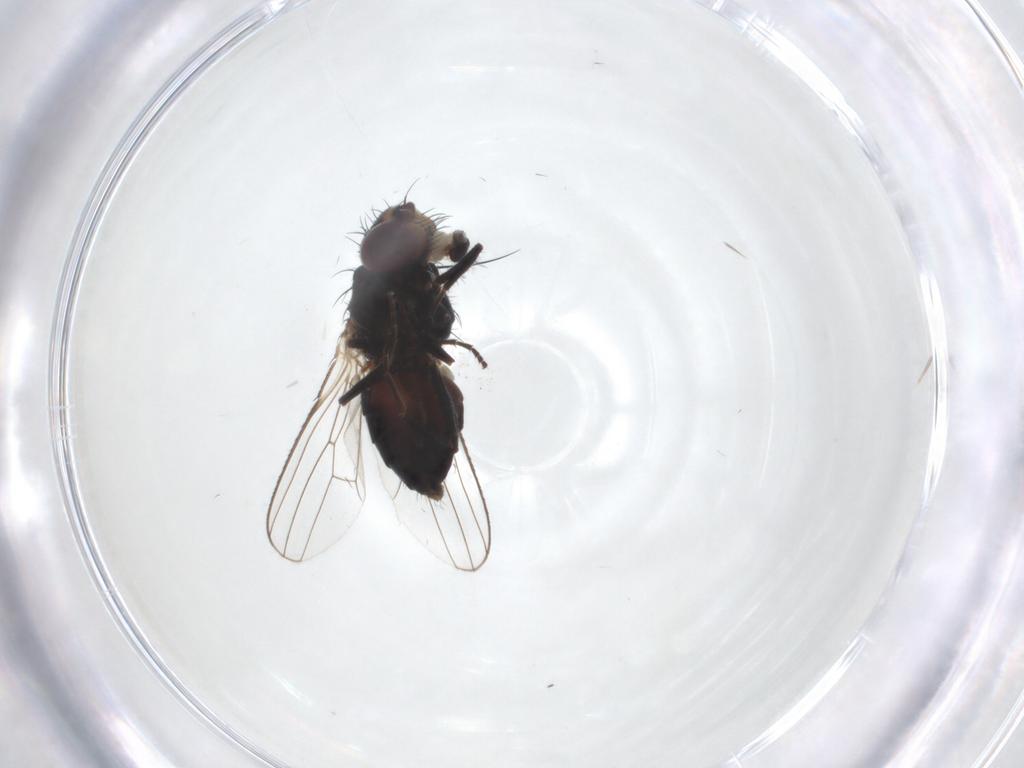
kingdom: Animalia
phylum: Arthropoda
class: Insecta
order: Diptera
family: Carnidae
